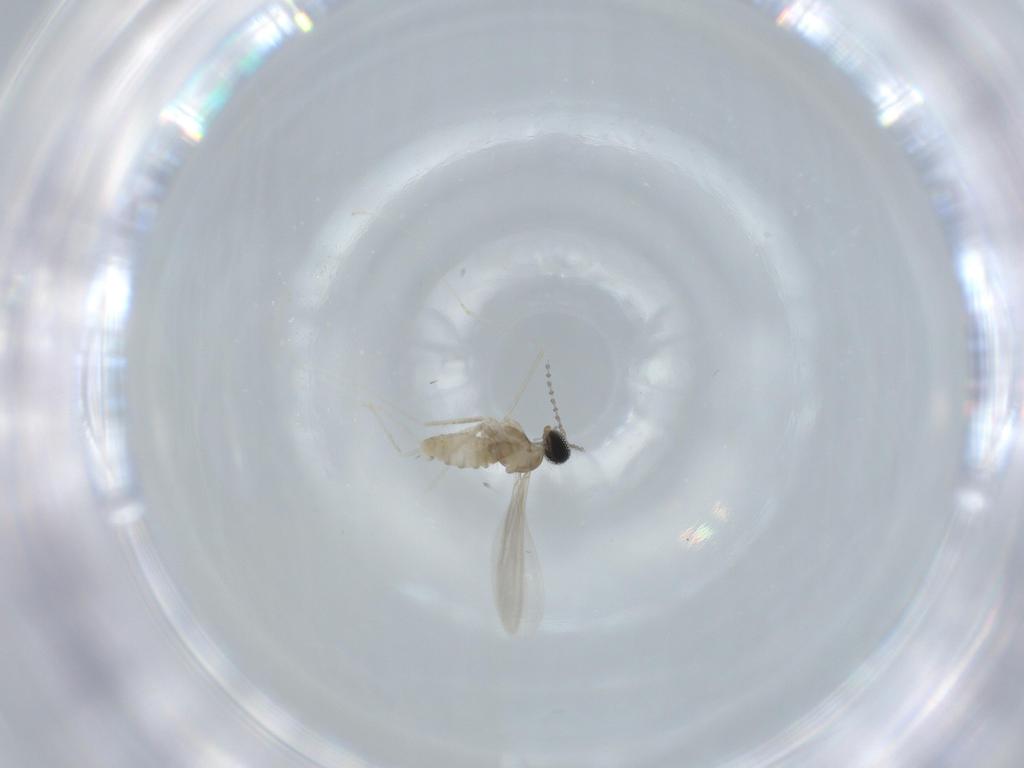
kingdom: Animalia
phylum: Arthropoda
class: Insecta
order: Diptera
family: Cecidomyiidae
